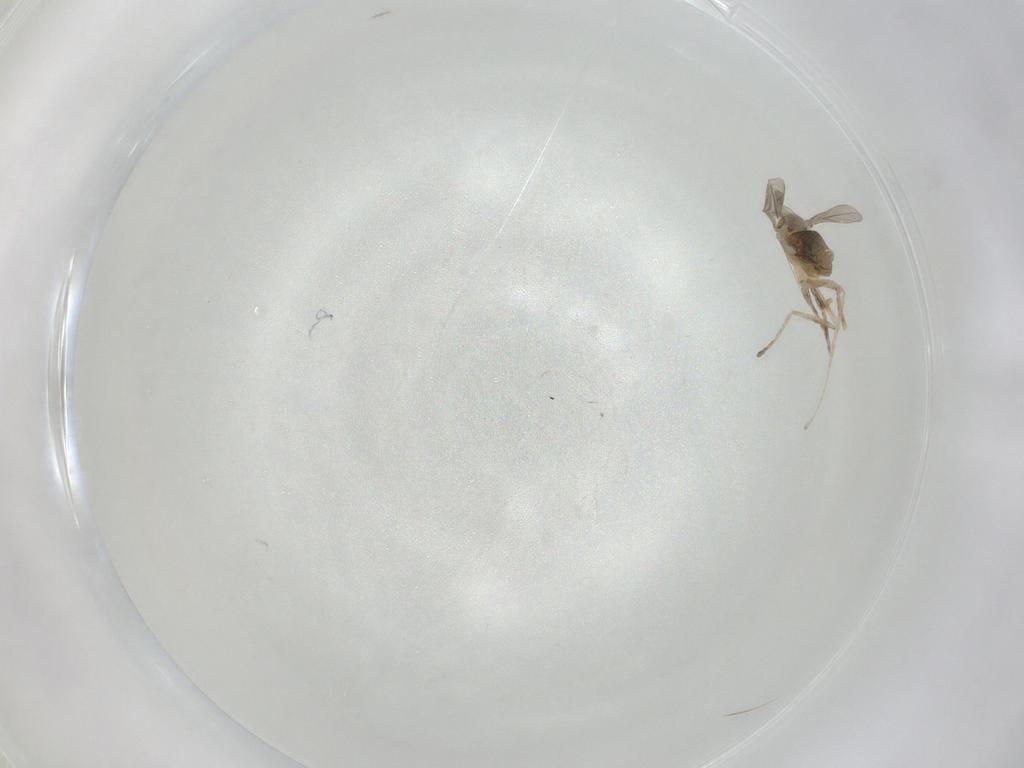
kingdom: Animalia
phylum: Arthropoda
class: Insecta
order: Diptera
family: Cecidomyiidae
